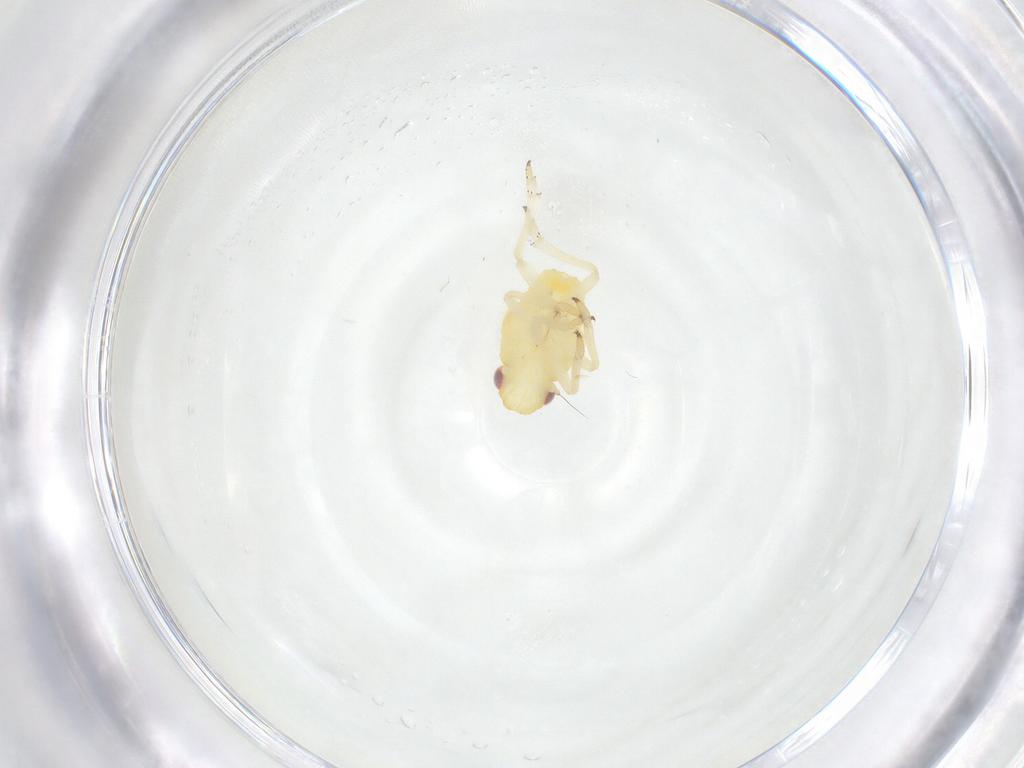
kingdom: Animalia
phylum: Arthropoda
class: Insecta
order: Hemiptera
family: Caliscelidae
